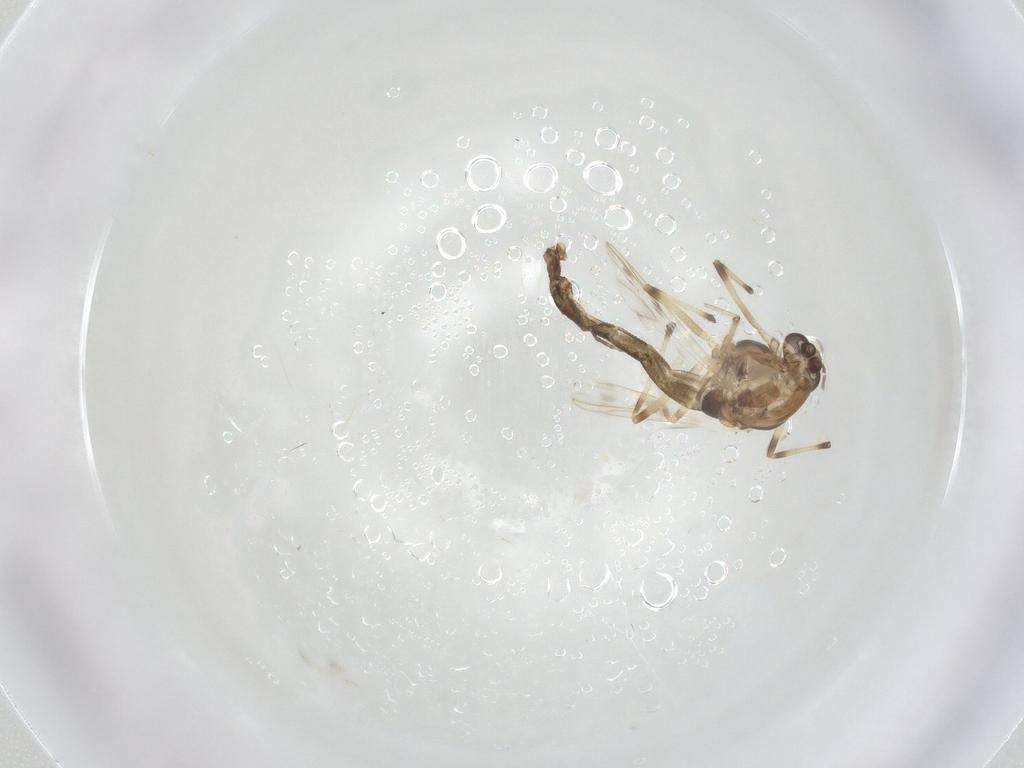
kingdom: Animalia
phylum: Arthropoda
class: Insecta
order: Diptera
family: Chironomidae
